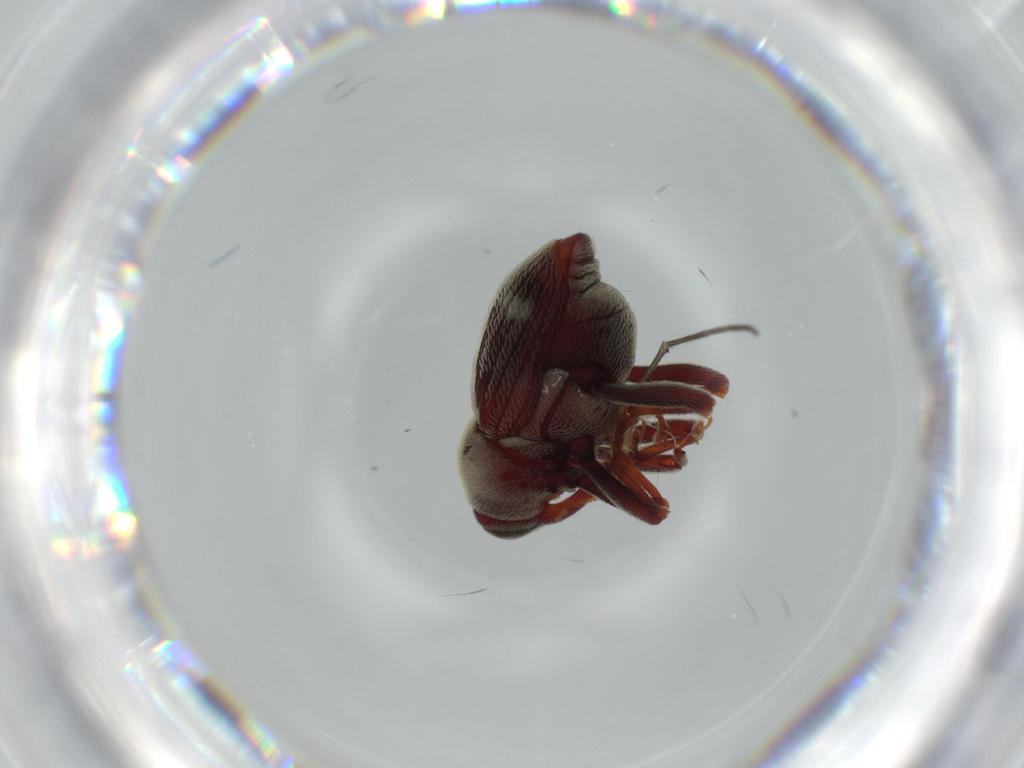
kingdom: Animalia
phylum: Arthropoda
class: Insecta
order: Coleoptera
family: Curculionidae
